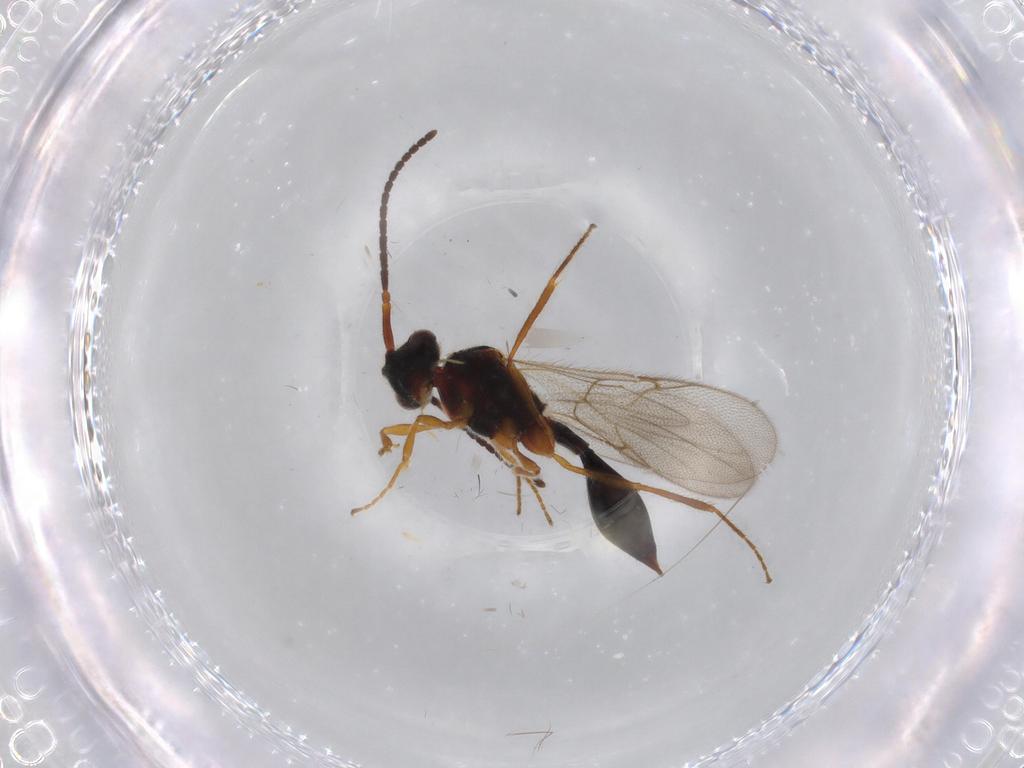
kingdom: Animalia
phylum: Arthropoda
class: Insecta
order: Hymenoptera
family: Diapriidae
